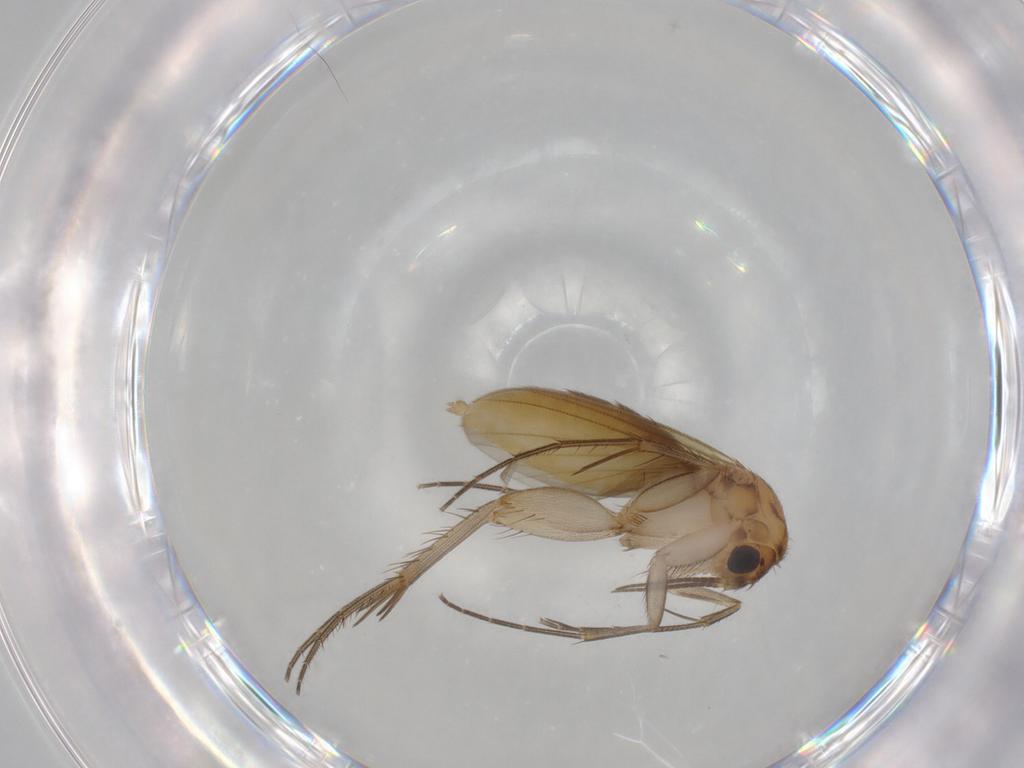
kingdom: Animalia
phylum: Arthropoda
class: Insecta
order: Diptera
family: Mycetophilidae
